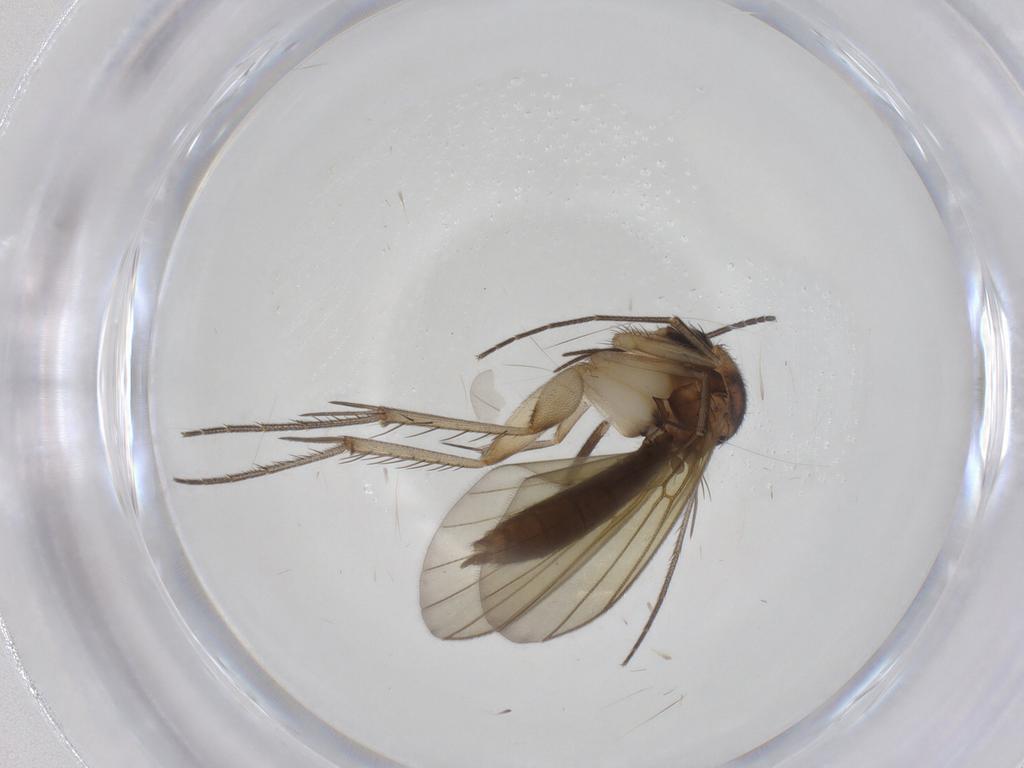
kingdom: Animalia
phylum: Arthropoda
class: Insecta
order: Diptera
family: Mycetophilidae
